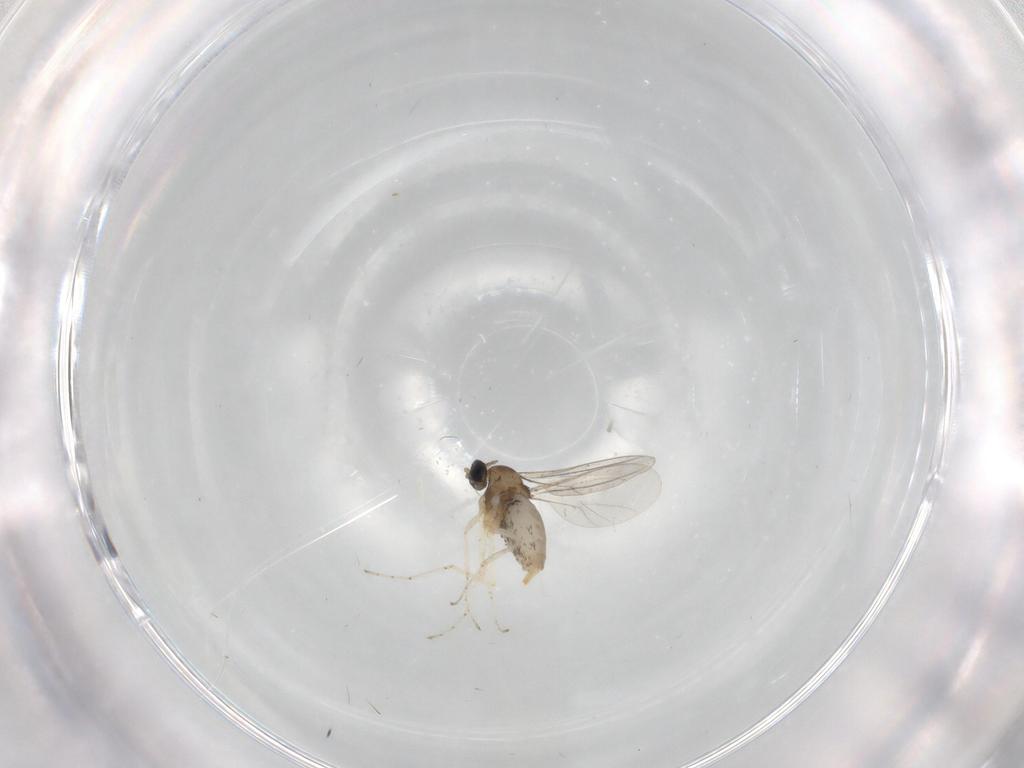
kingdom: Animalia
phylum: Arthropoda
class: Insecta
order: Diptera
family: Cecidomyiidae
